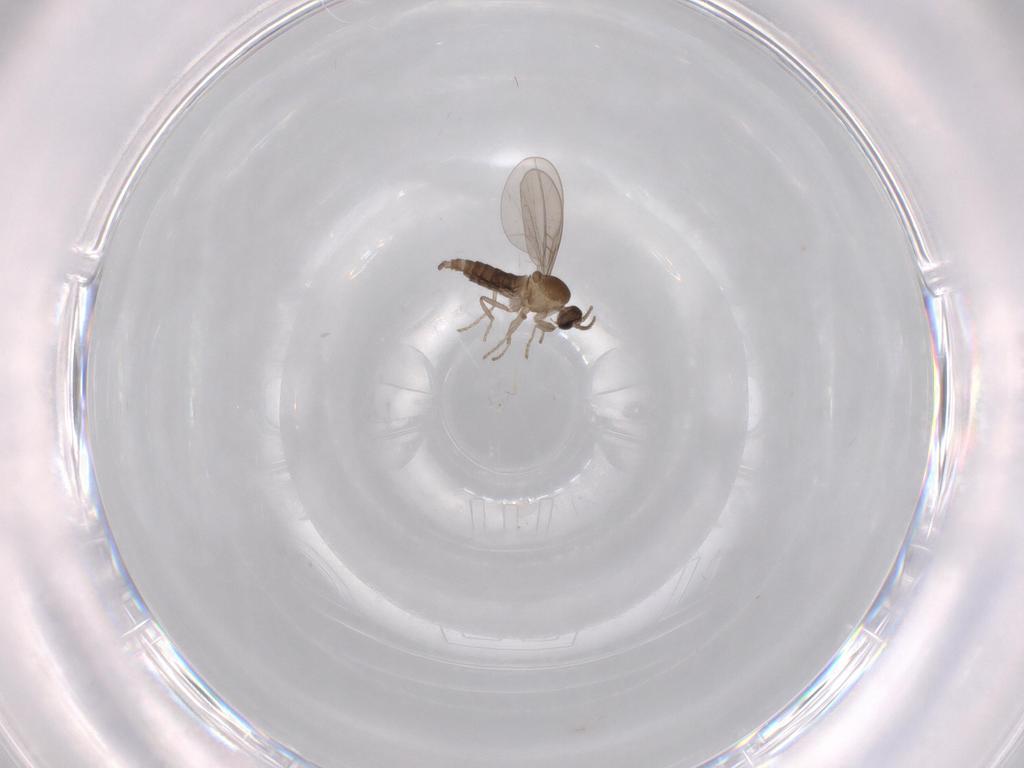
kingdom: Animalia
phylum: Arthropoda
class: Insecta
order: Diptera
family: Cecidomyiidae
